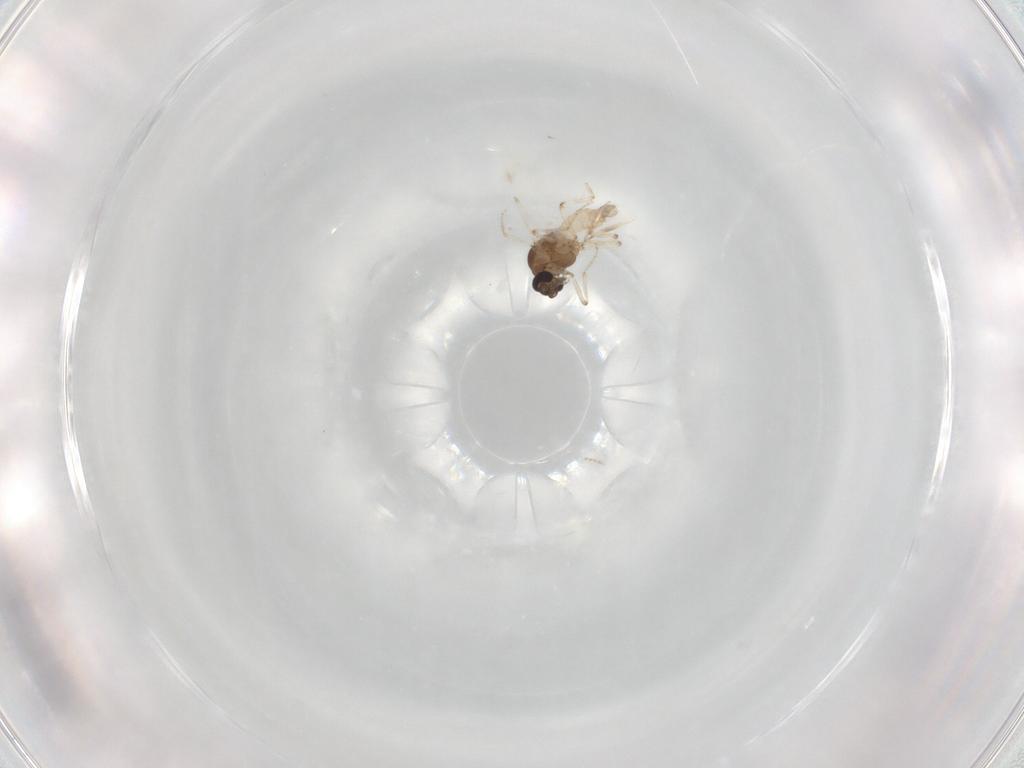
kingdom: Animalia
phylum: Arthropoda
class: Insecta
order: Diptera
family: Ceratopogonidae
